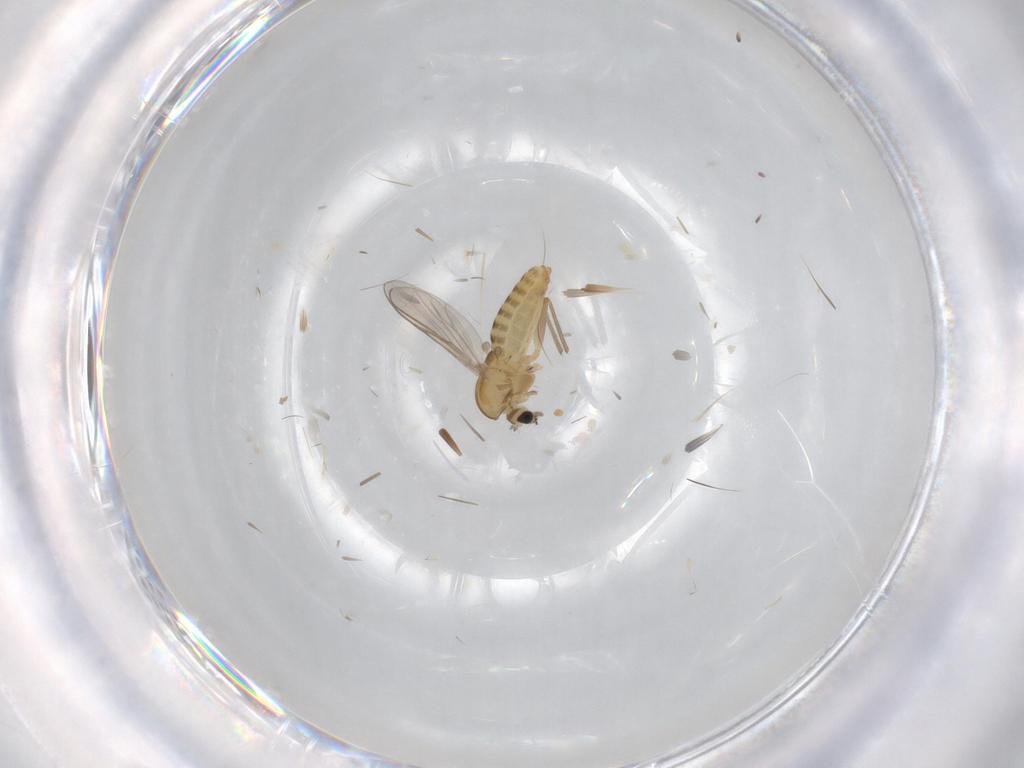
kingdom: Animalia
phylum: Arthropoda
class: Insecta
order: Diptera
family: Chironomidae
